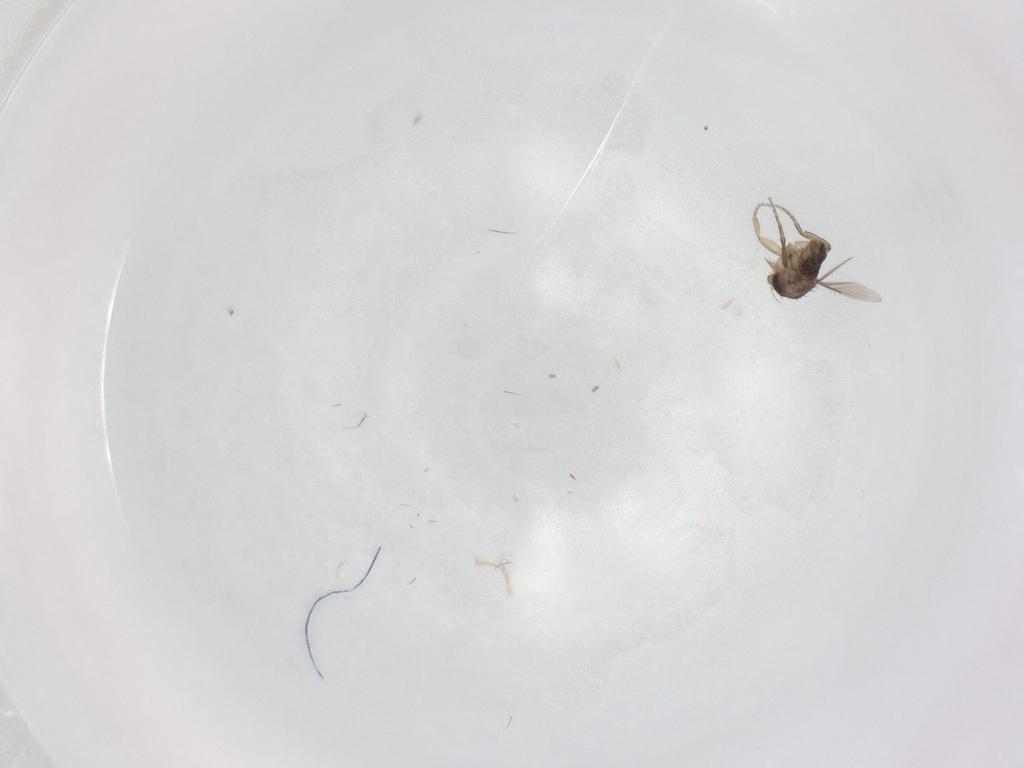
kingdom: Animalia
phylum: Arthropoda
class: Insecta
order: Diptera
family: Phoridae
